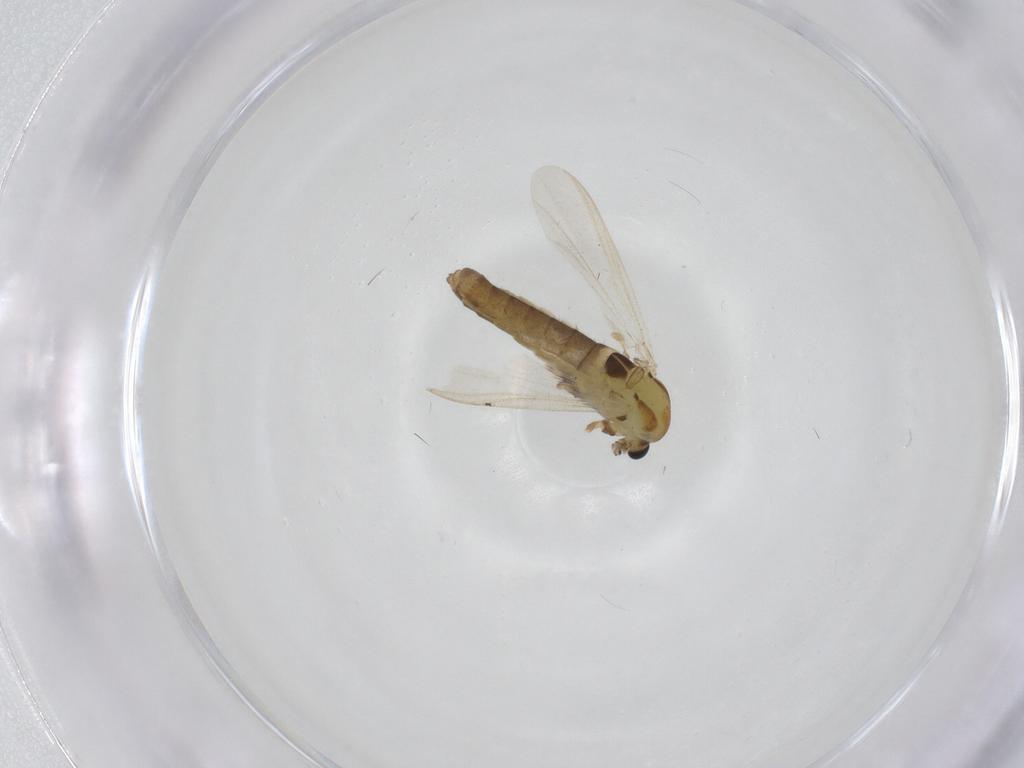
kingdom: Animalia
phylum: Arthropoda
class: Insecta
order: Diptera
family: Chironomidae
